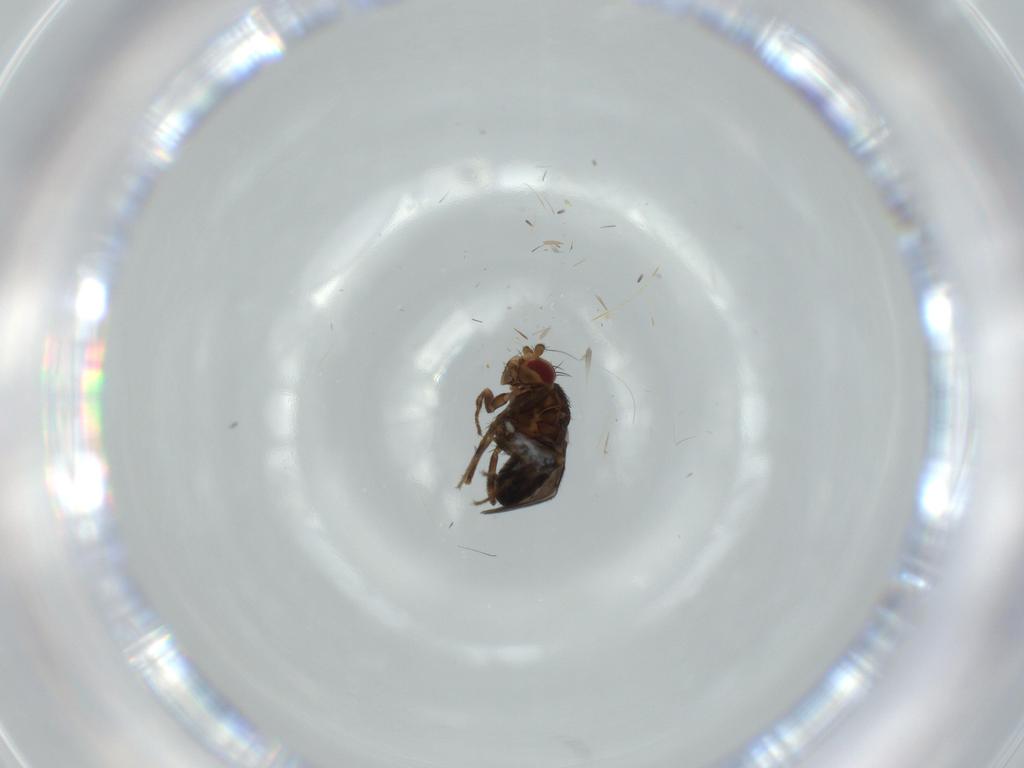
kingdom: Animalia
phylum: Arthropoda
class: Insecta
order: Diptera
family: Sphaeroceridae
